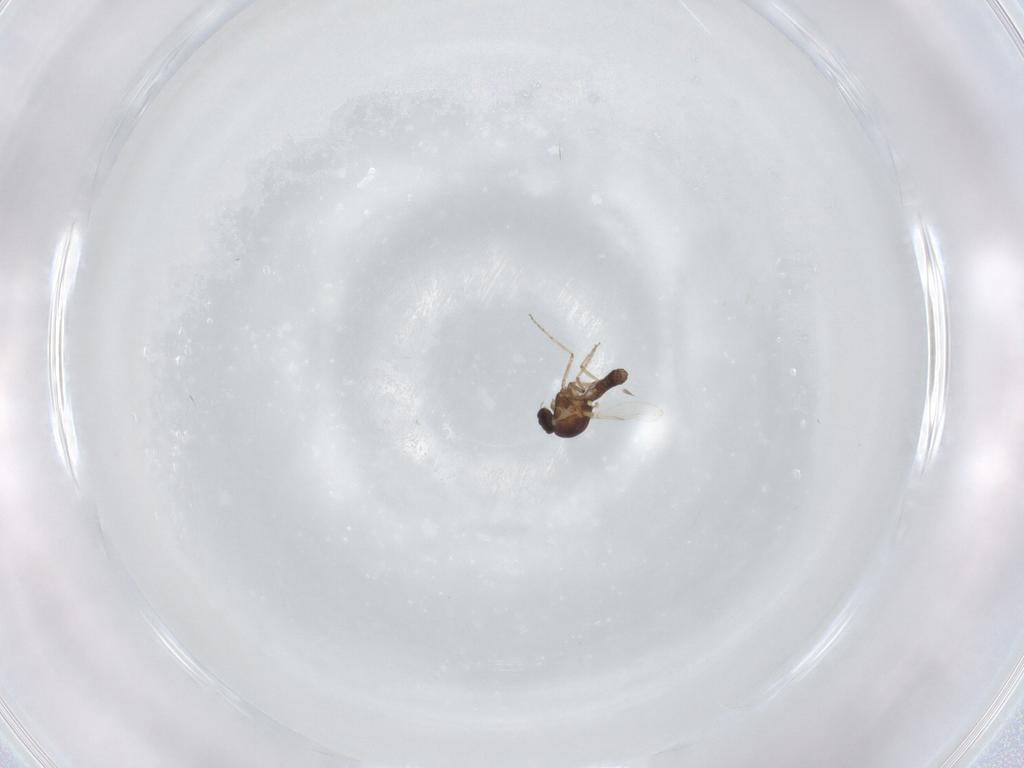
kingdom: Animalia
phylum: Arthropoda
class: Insecta
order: Diptera
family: Ceratopogonidae
